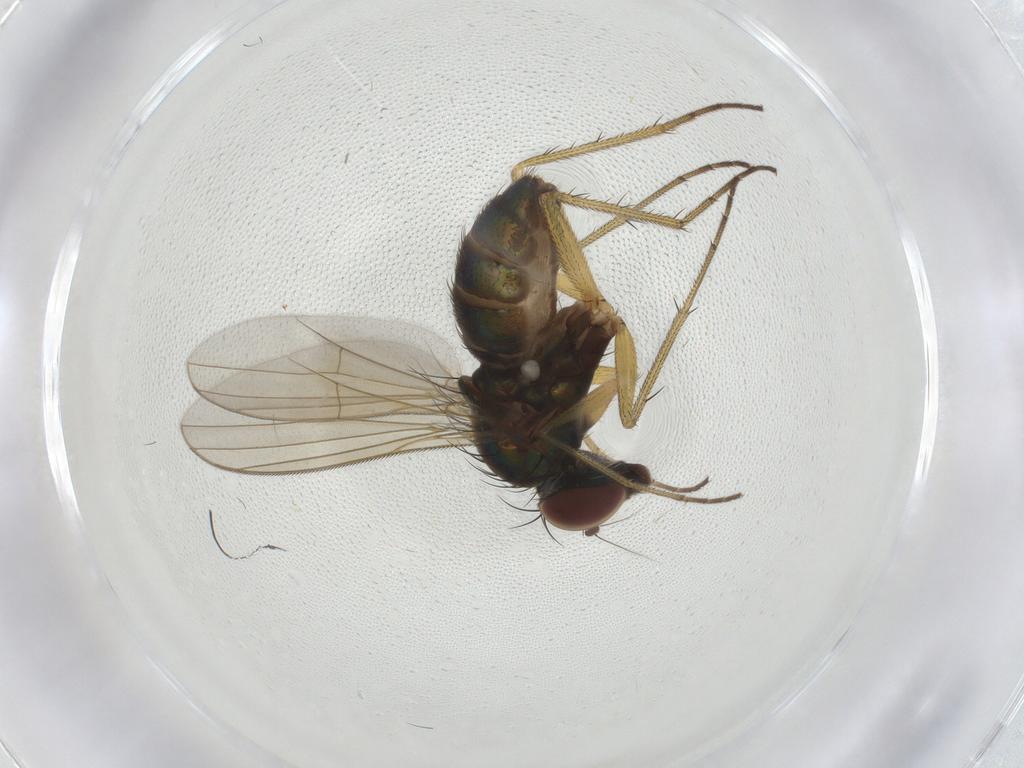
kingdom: Animalia
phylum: Arthropoda
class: Insecta
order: Diptera
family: Dolichopodidae
